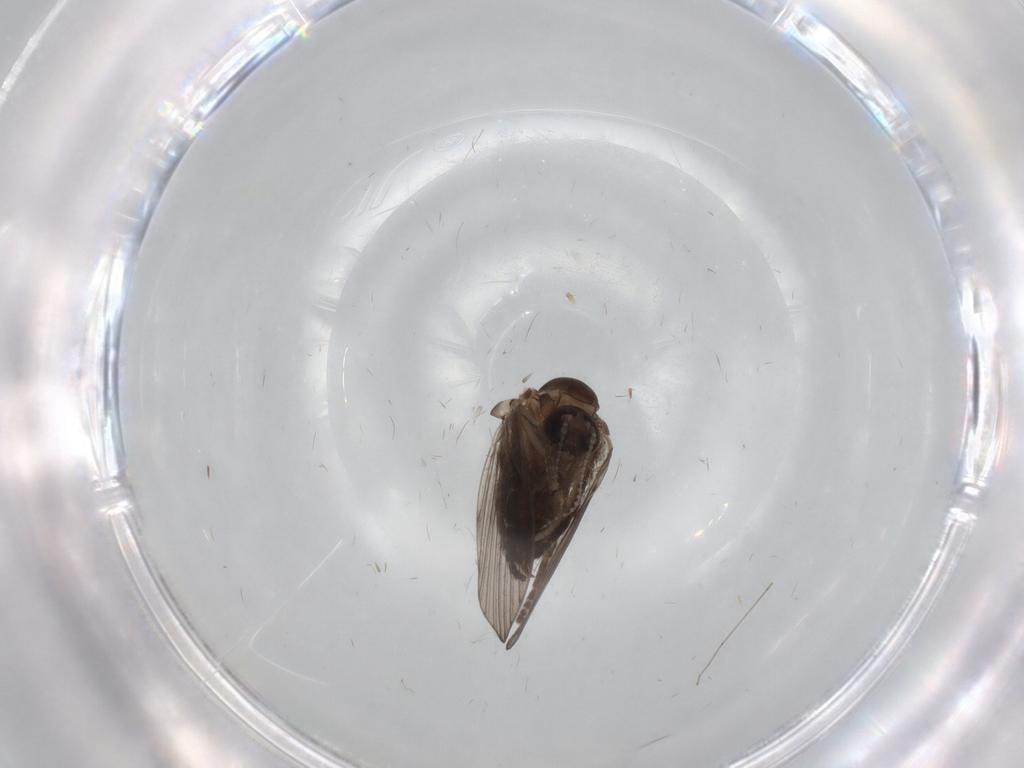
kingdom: Animalia
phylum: Arthropoda
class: Insecta
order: Diptera
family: Psychodidae
